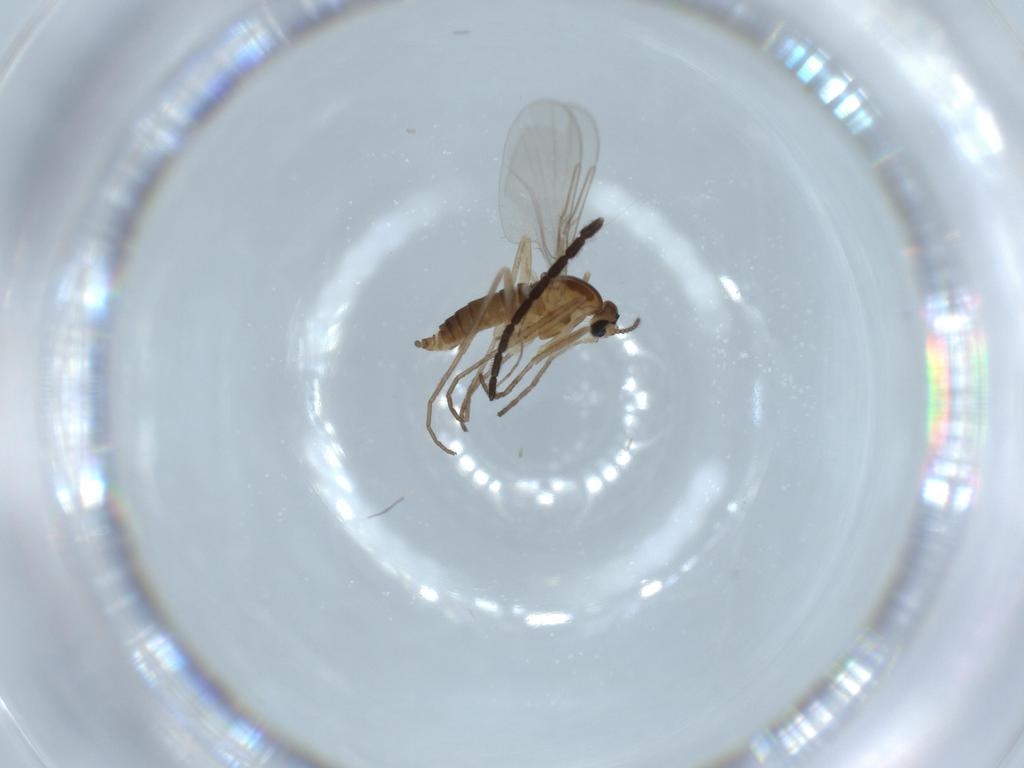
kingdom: Animalia
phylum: Arthropoda
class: Insecta
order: Diptera
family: Cecidomyiidae
